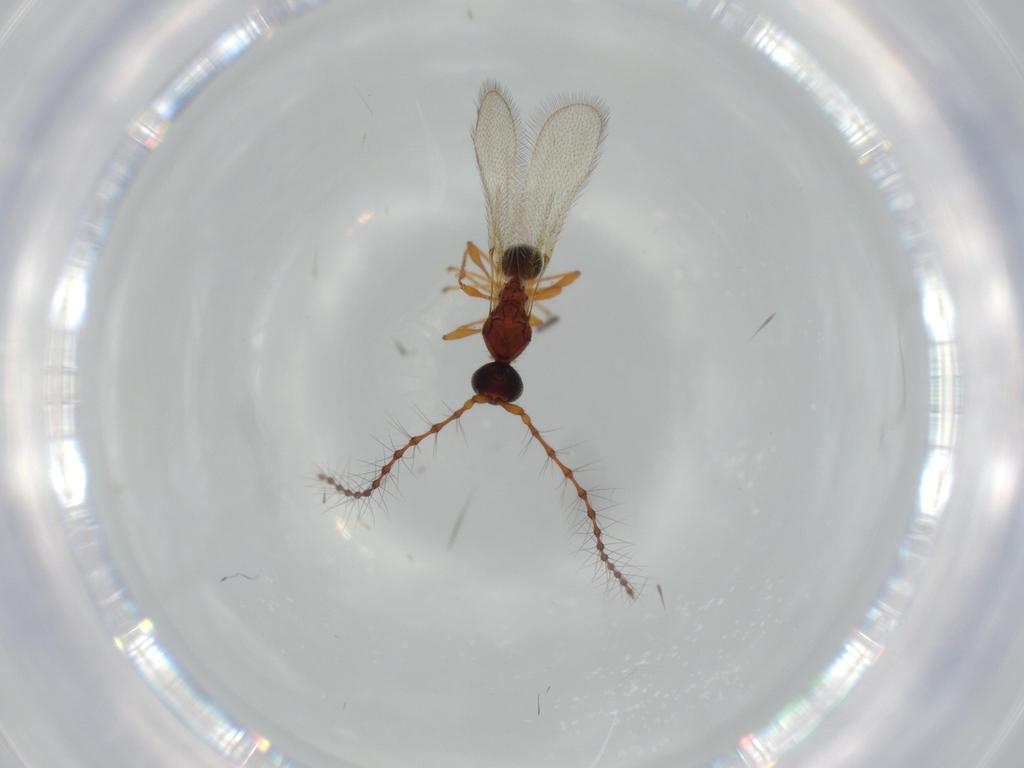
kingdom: Animalia
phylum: Arthropoda
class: Insecta
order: Hymenoptera
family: Diapriidae
